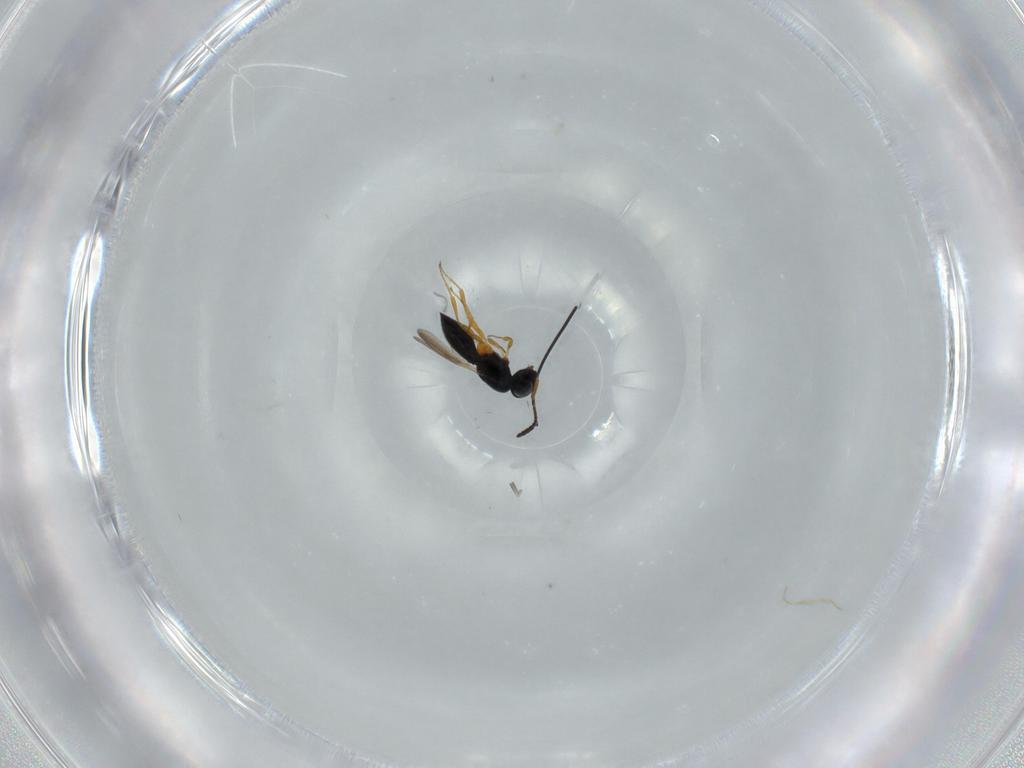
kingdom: Animalia
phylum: Arthropoda
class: Insecta
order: Hymenoptera
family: Scelionidae
